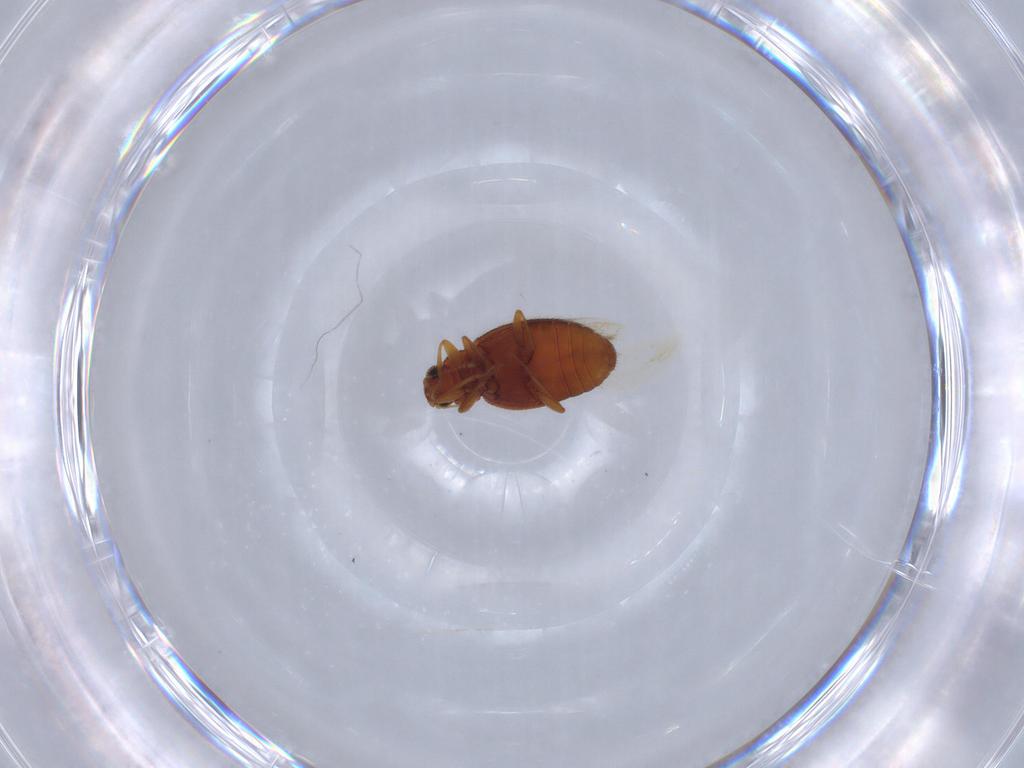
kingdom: Animalia
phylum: Arthropoda
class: Insecta
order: Coleoptera
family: Latridiidae
